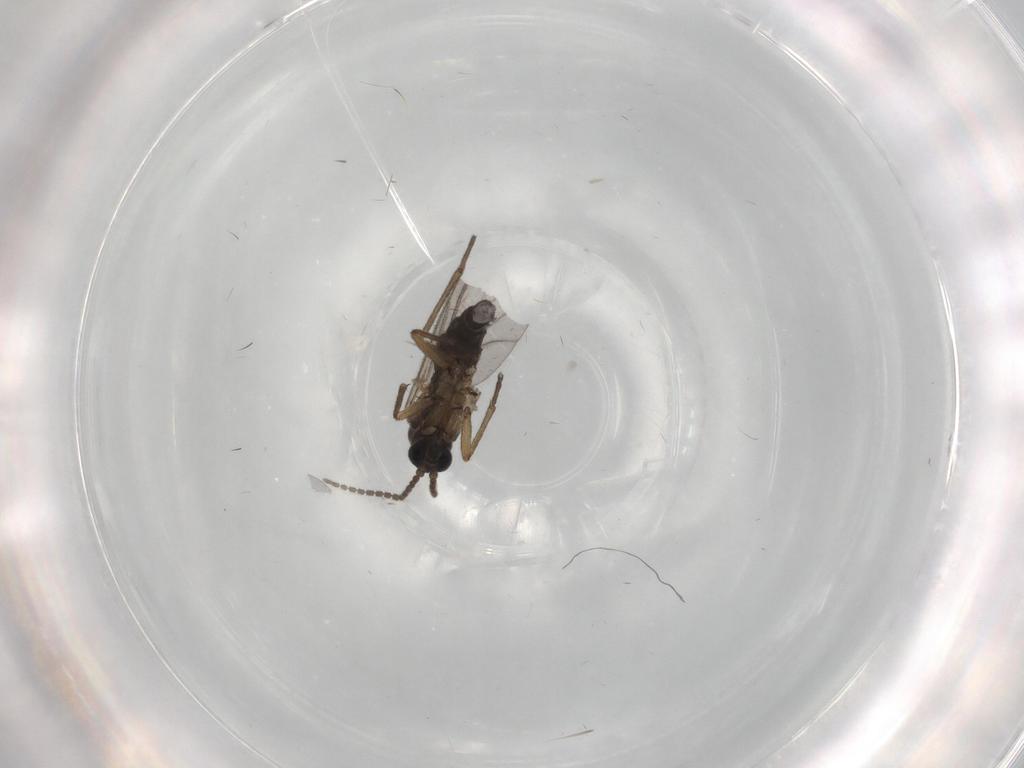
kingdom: Animalia
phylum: Arthropoda
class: Insecta
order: Diptera
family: Sciaridae
